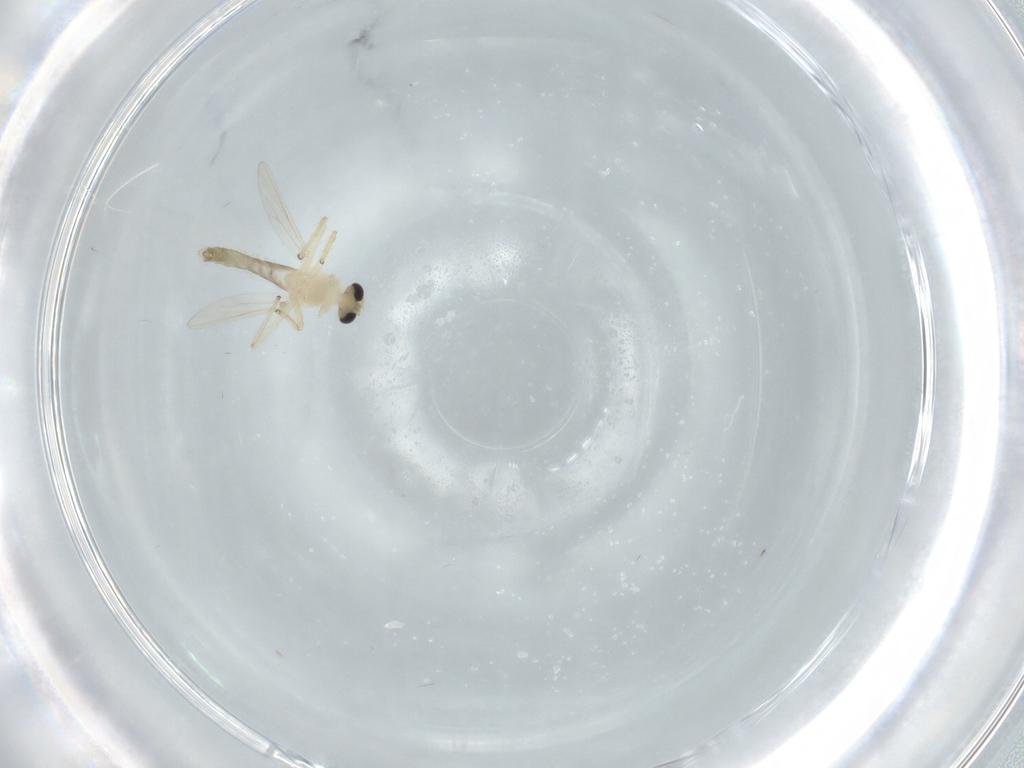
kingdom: Animalia
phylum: Arthropoda
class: Insecta
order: Diptera
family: Chironomidae
